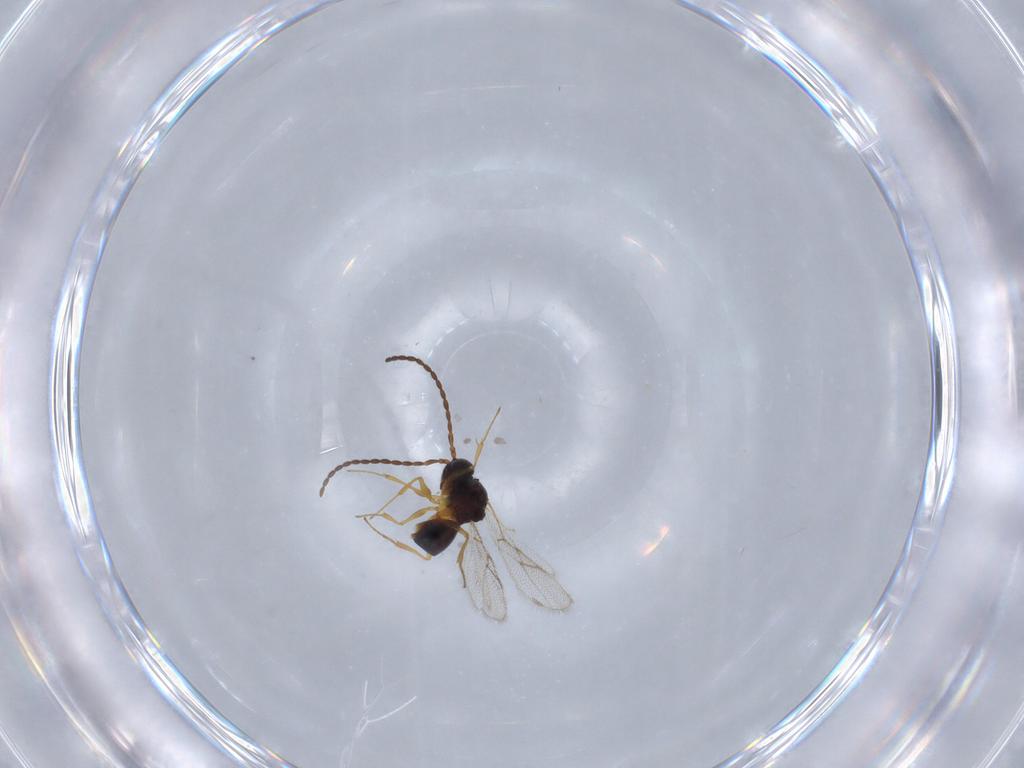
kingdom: Animalia
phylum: Arthropoda
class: Insecta
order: Hymenoptera
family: Figitidae
